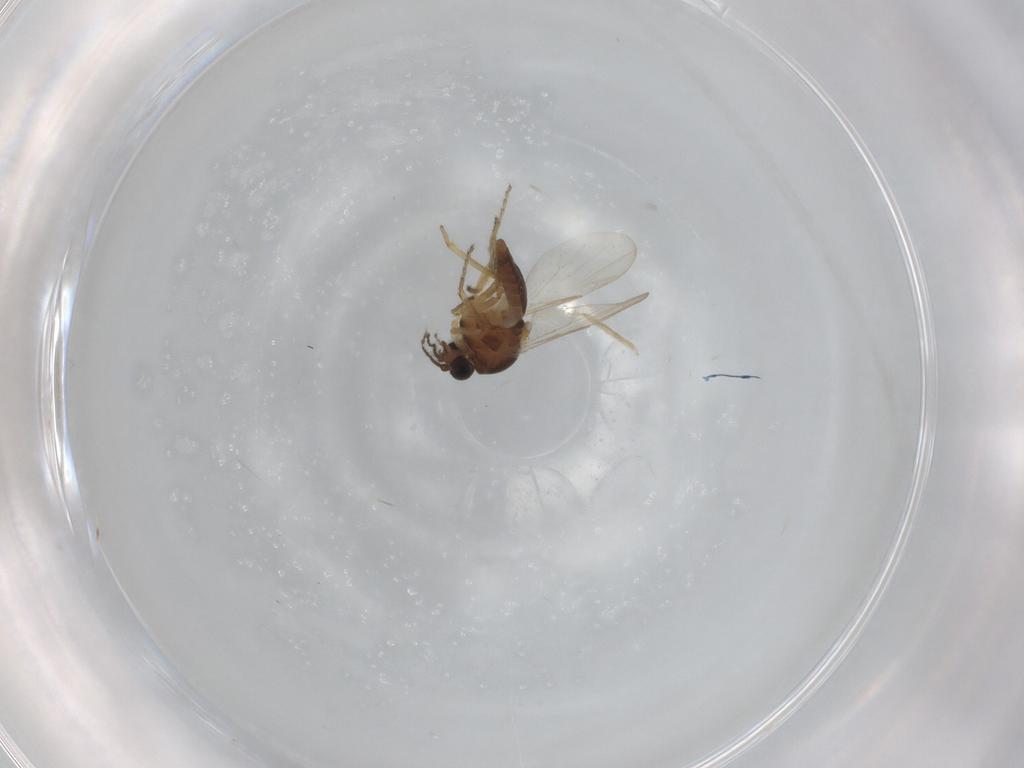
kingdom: Animalia
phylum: Arthropoda
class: Insecta
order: Diptera
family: Ceratopogonidae
